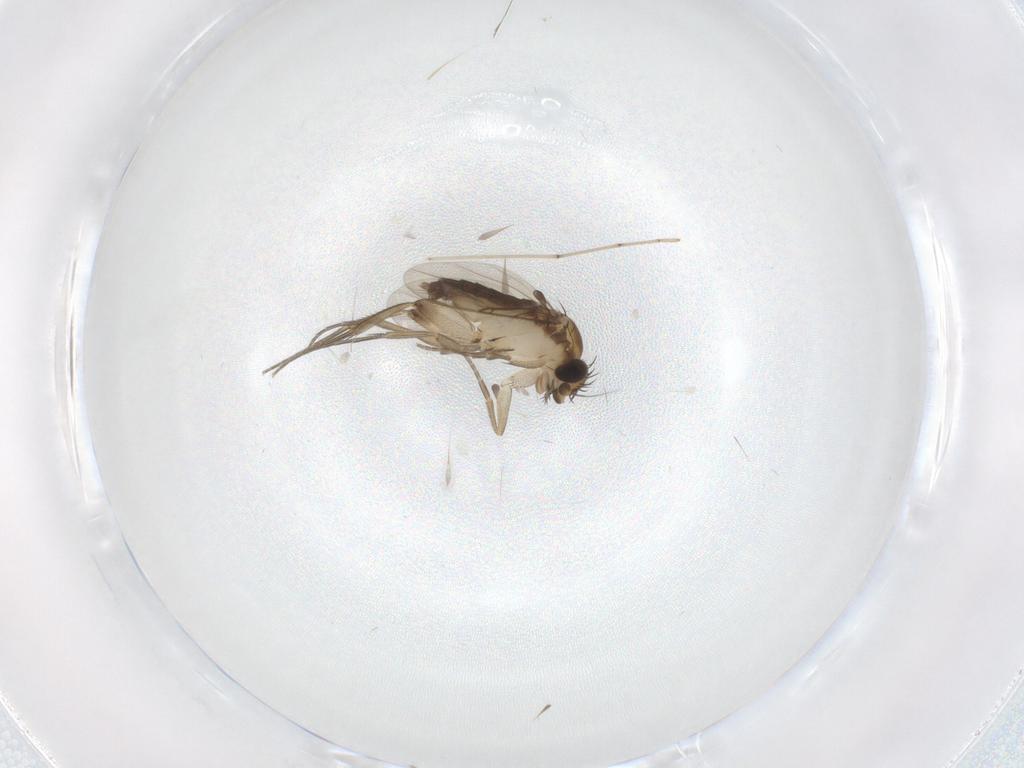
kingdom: Animalia
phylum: Arthropoda
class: Insecta
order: Diptera
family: Cecidomyiidae
